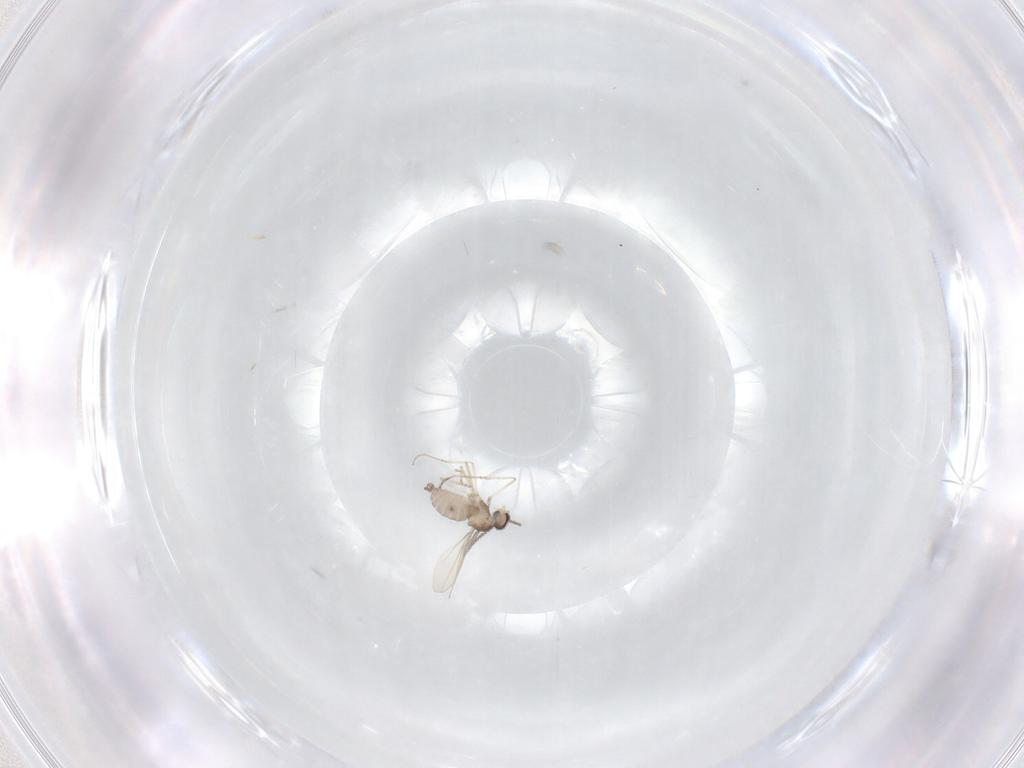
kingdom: Animalia
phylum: Arthropoda
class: Insecta
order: Diptera
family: Cecidomyiidae
